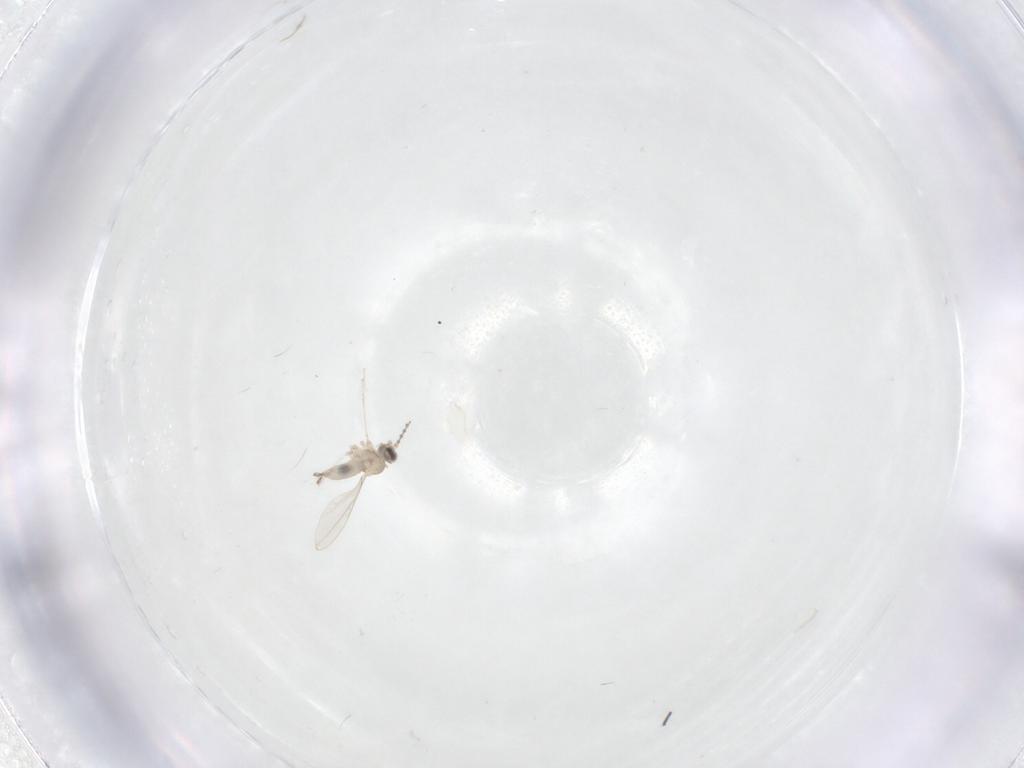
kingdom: Animalia
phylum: Arthropoda
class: Insecta
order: Diptera
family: Cecidomyiidae
